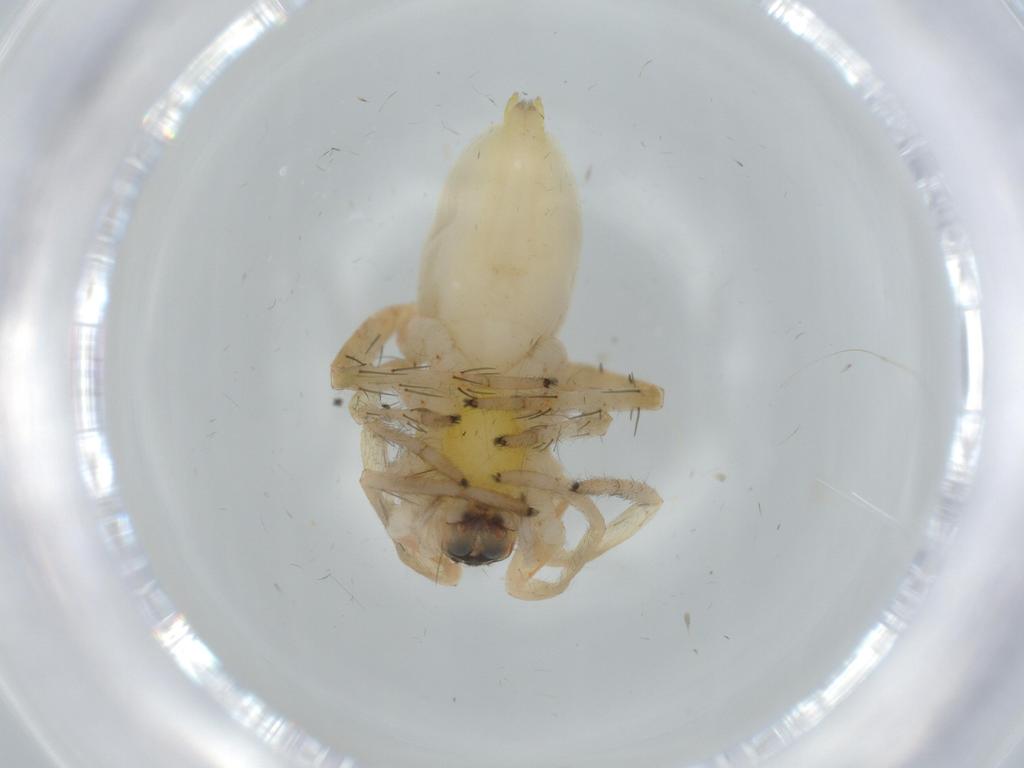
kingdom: Animalia
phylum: Arthropoda
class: Arachnida
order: Araneae
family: Anyphaenidae
